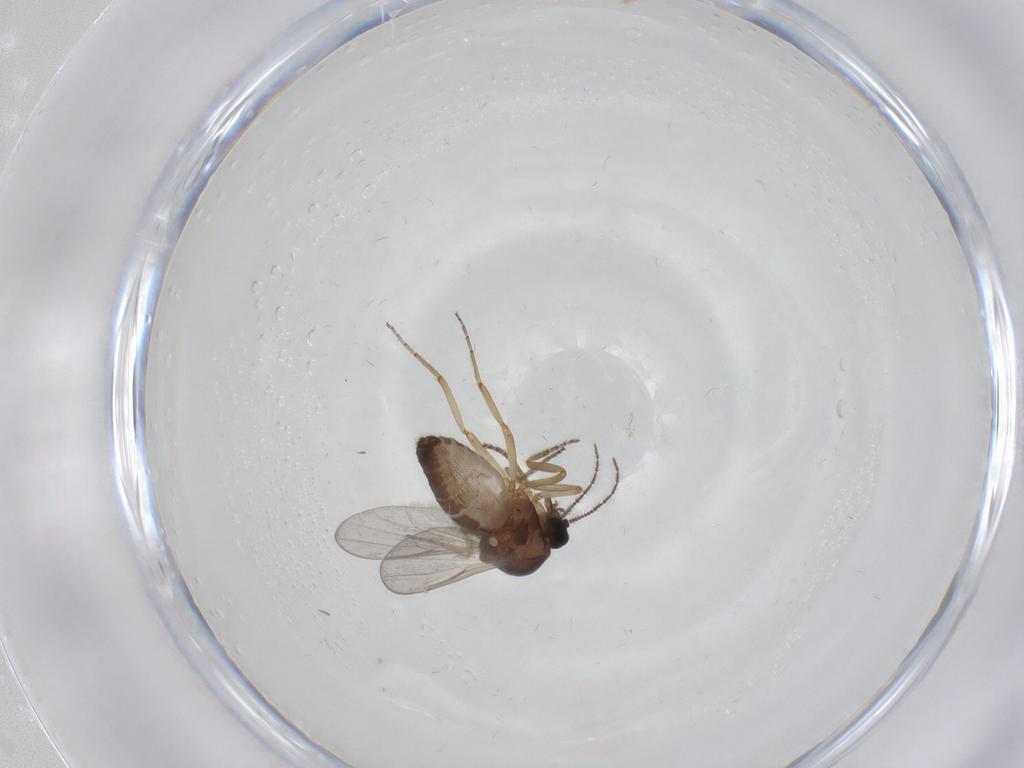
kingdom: Animalia
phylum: Arthropoda
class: Insecta
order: Diptera
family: Ceratopogonidae
